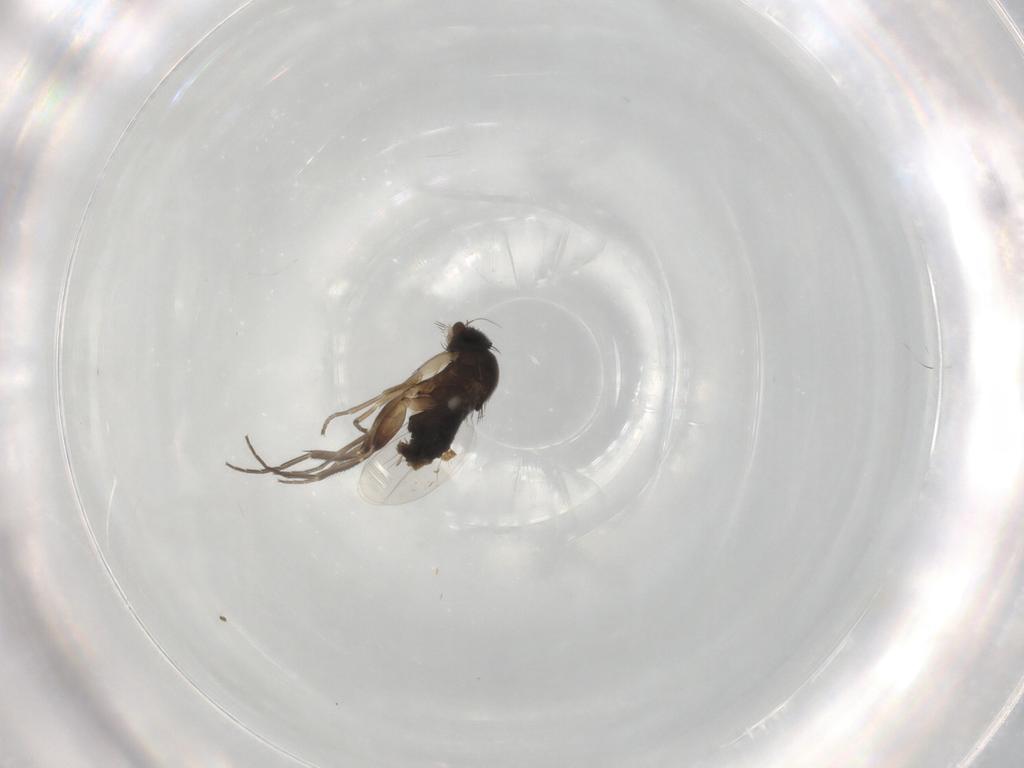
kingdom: Animalia
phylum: Arthropoda
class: Insecta
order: Diptera
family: Phoridae
